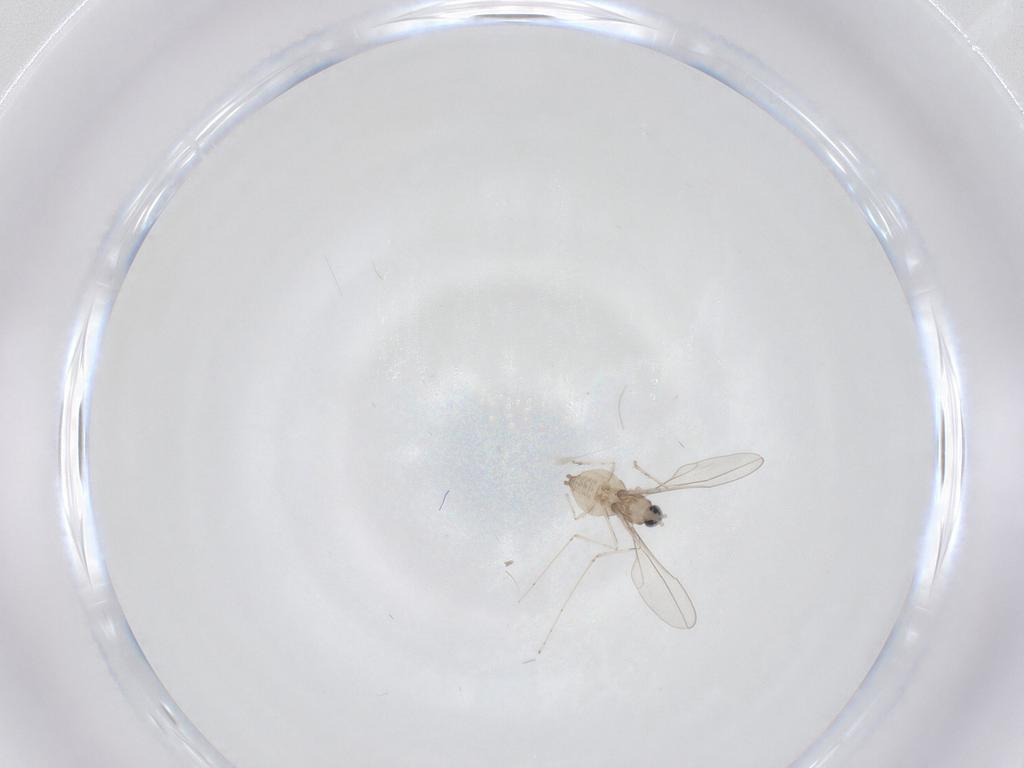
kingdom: Animalia
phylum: Arthropoda
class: Insecta
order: Diptera
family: Cecidomyiidae
